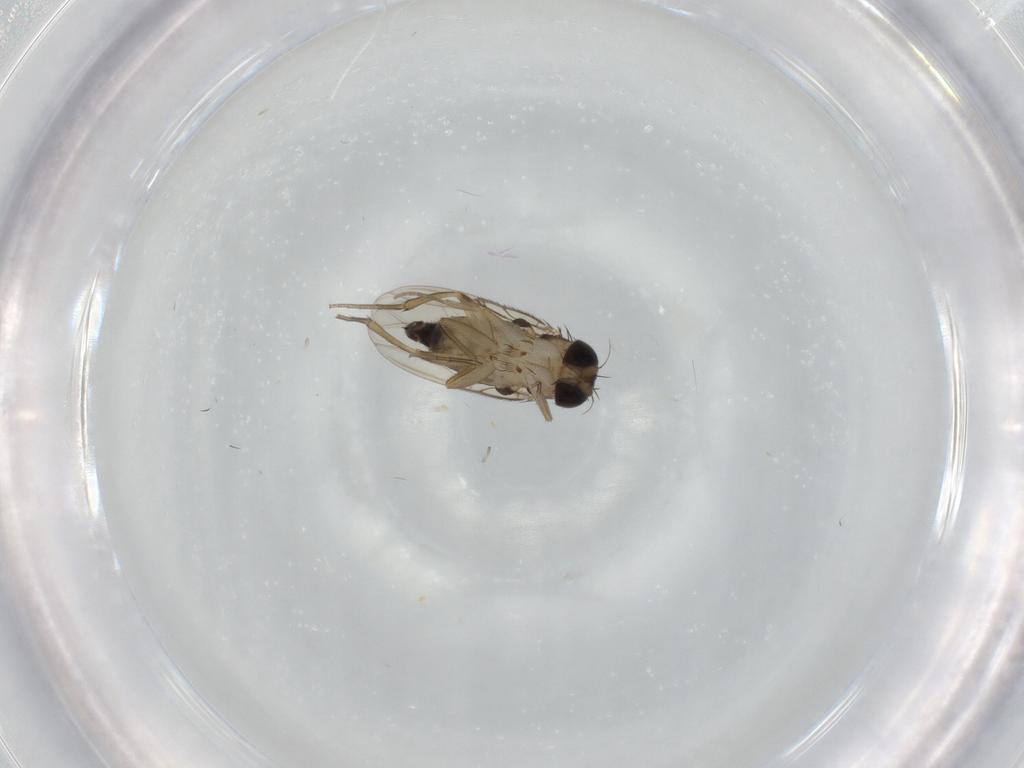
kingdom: Animalia
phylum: Arthropoda
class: Insecta
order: Diptera
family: Phoridae
